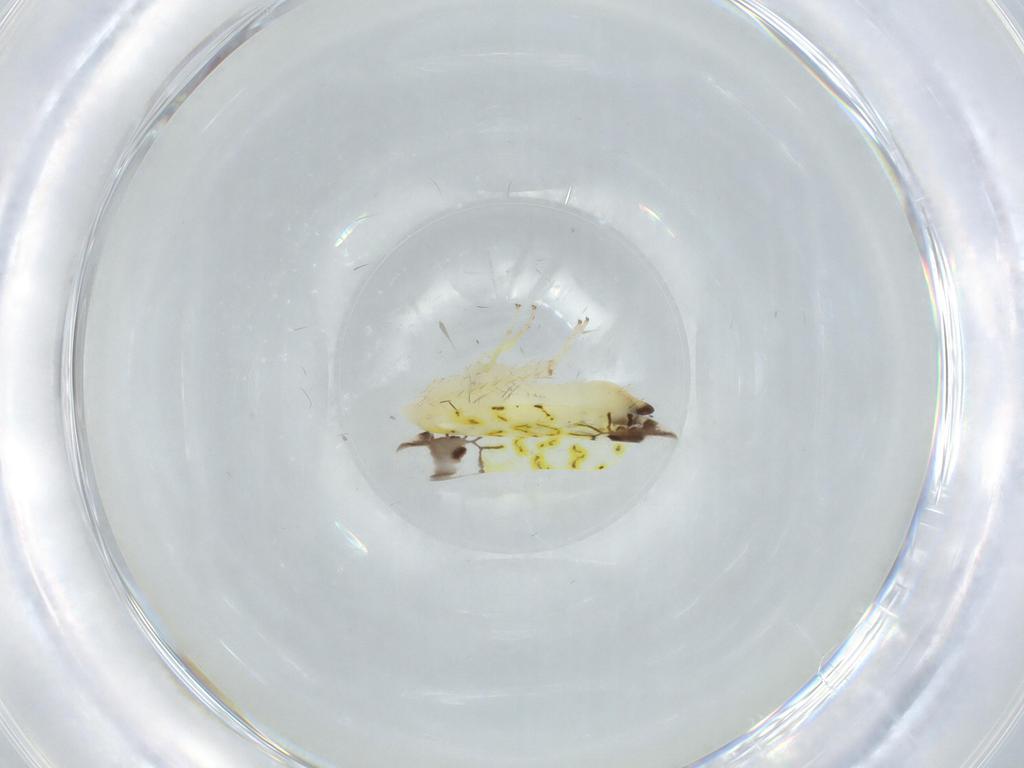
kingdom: Animalia
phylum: Arthropoda
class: Insecta
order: Hemiptera
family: Cicadellidae
